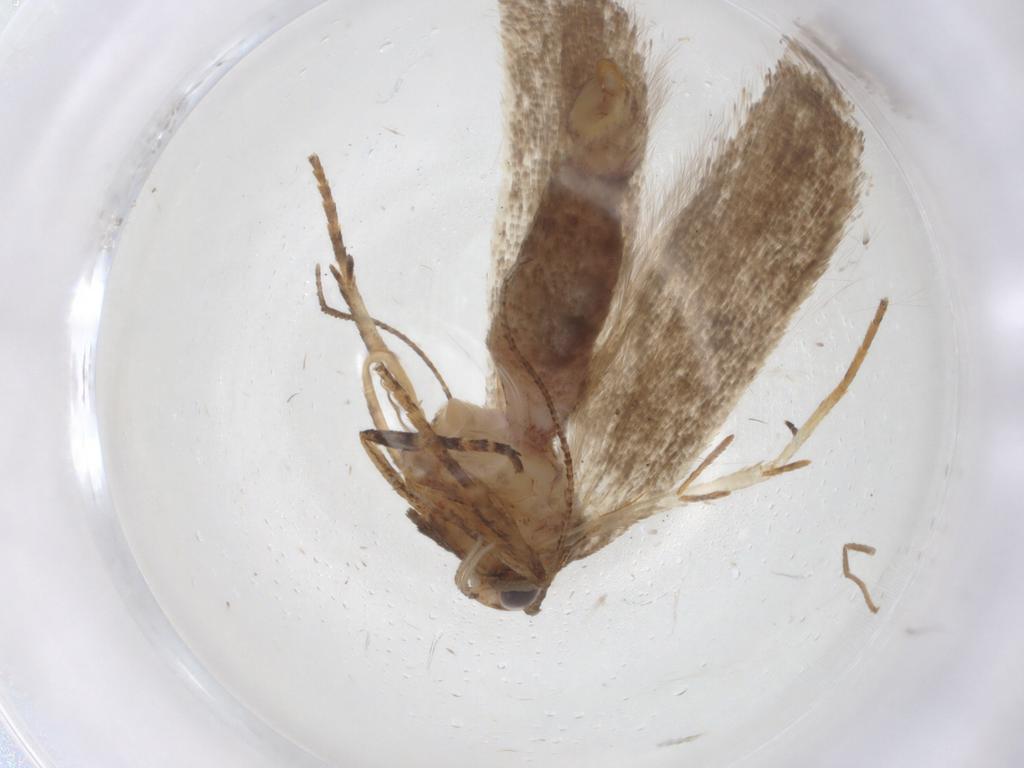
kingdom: Animalia
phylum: Arthropoda
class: Insecta
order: Lepidoptera
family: Gelechiidae
